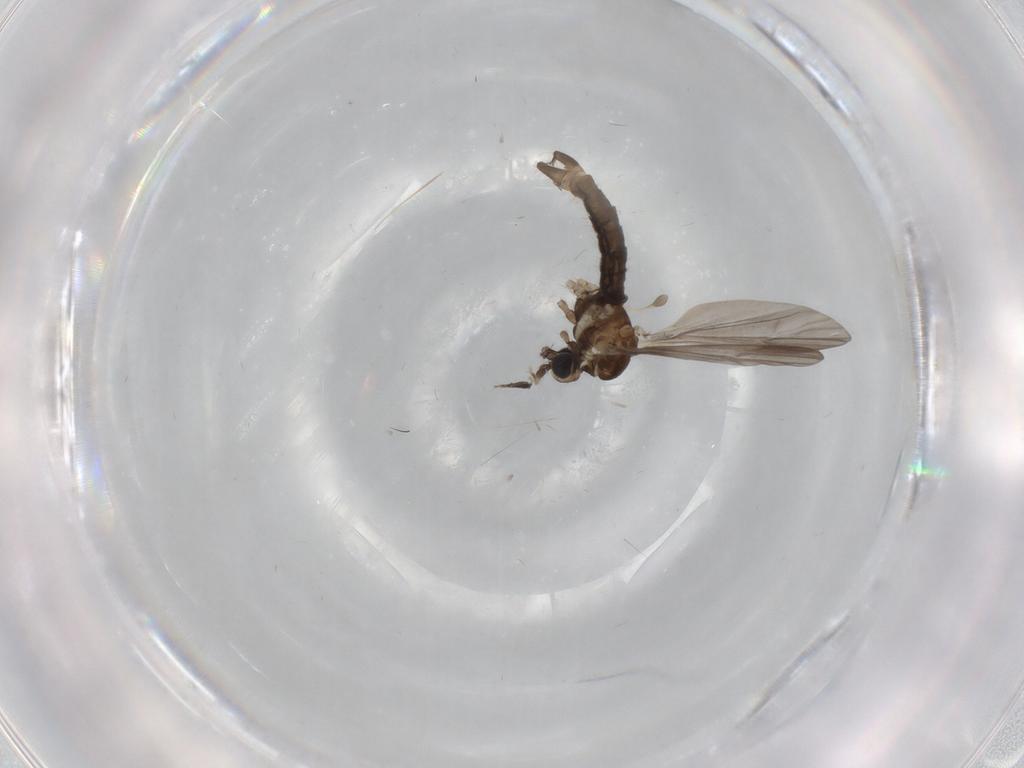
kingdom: Animalia
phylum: Arthropoda
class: Insecta
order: Diptera
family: Limoniidae
